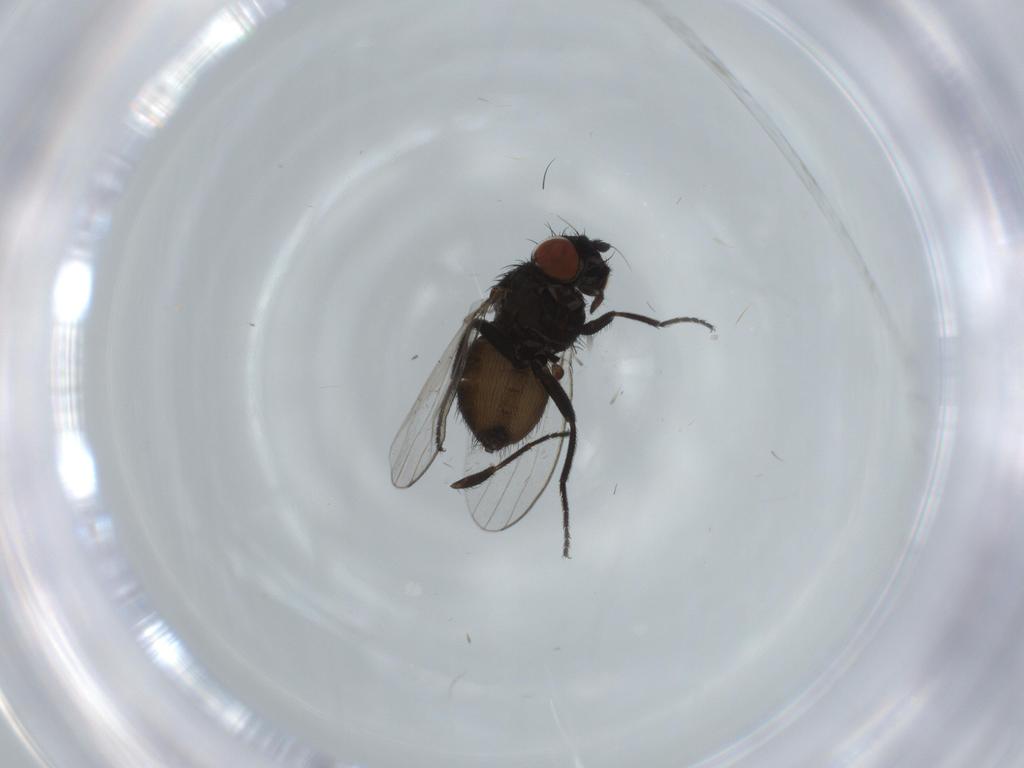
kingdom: Animalia
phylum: Arthropoda
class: Insecta
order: Diptera
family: Milichiidae
